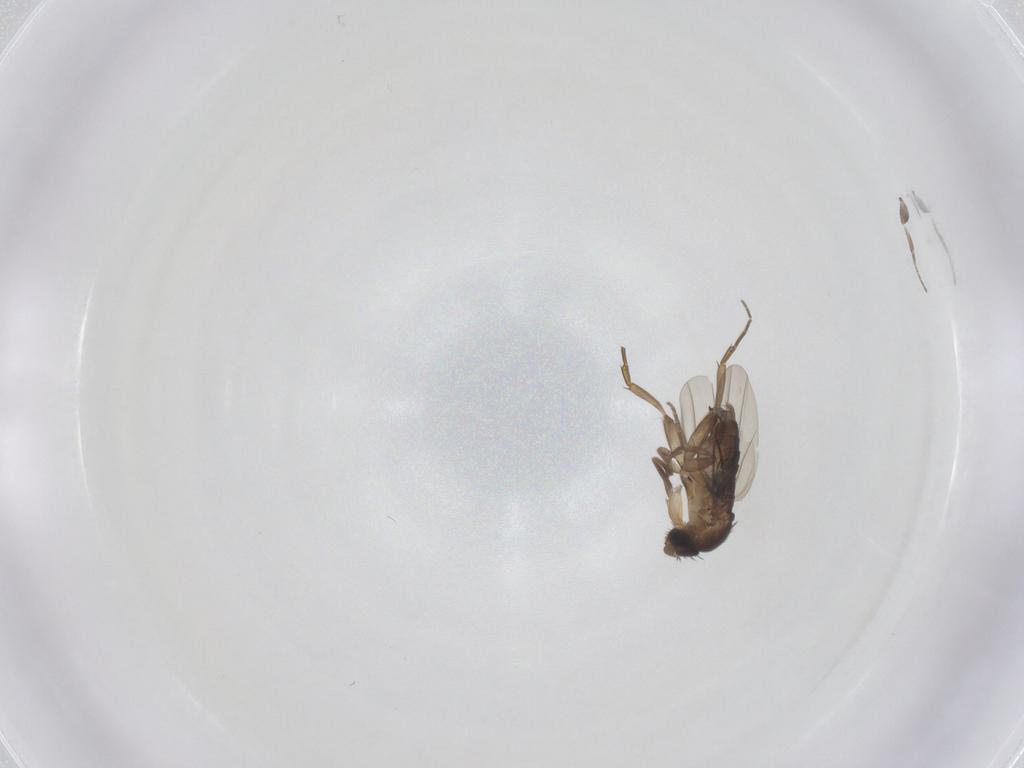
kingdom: Animalia
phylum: Arthropoda
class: Insecta
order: Diptera
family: Phoridae
